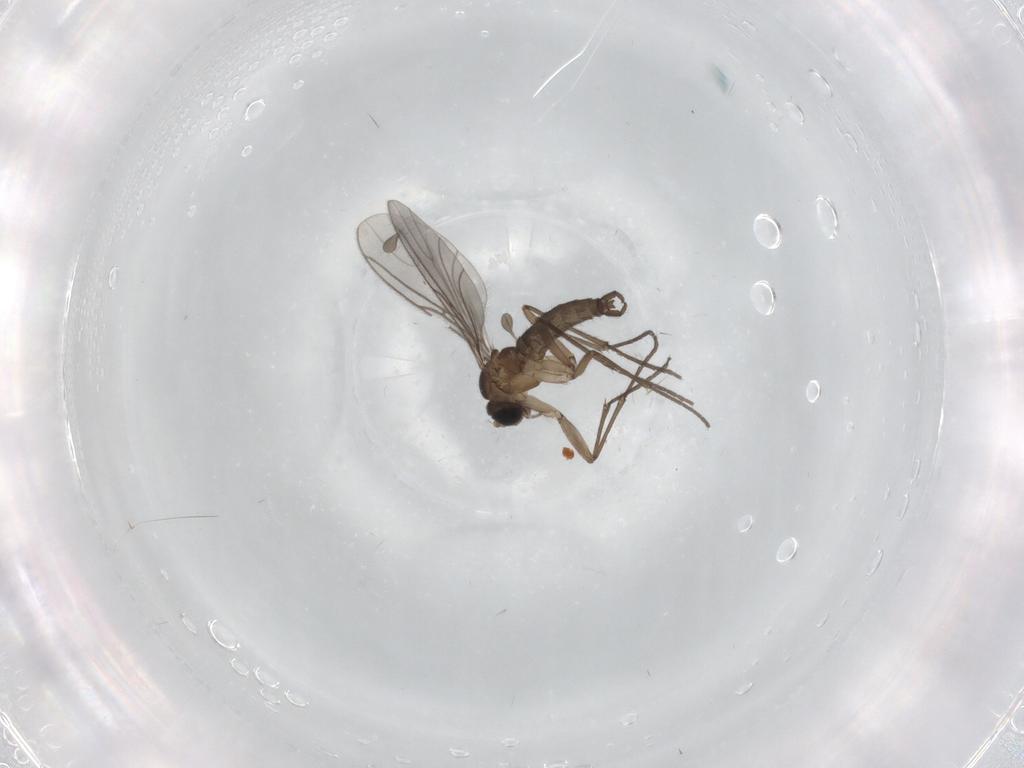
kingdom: Animalia
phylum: Arthropoda
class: Insecta
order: Diptera
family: Sciaridae
